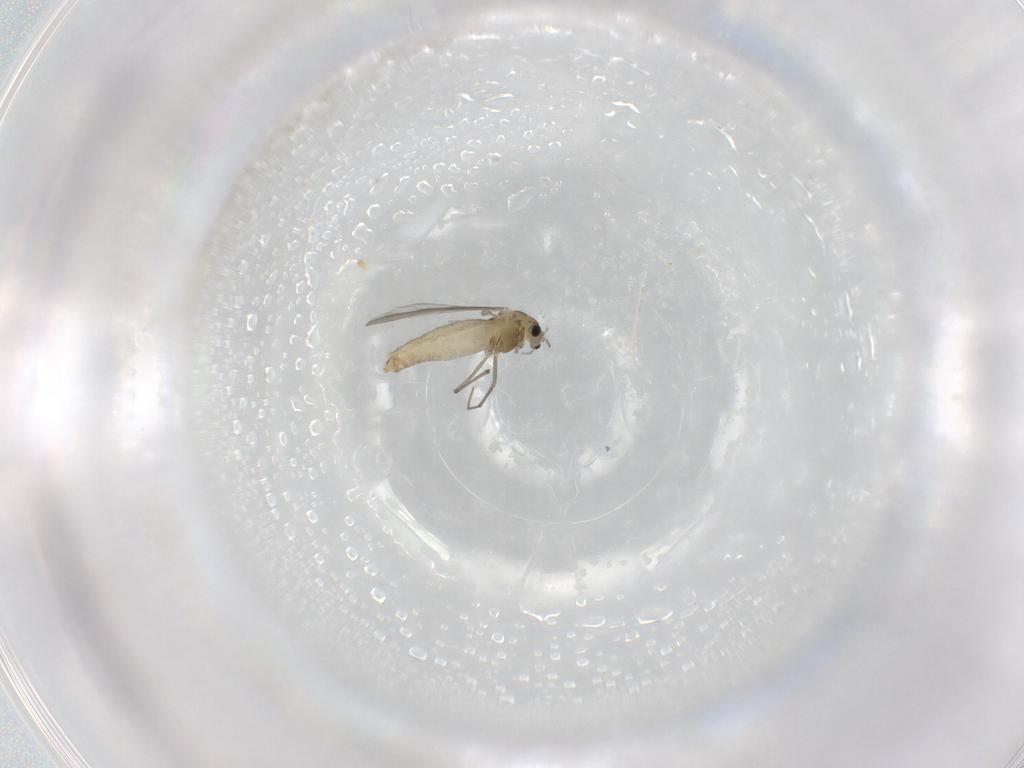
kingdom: Animalia
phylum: Arthropoda
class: Insecta
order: Diptera
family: Chironomidae
